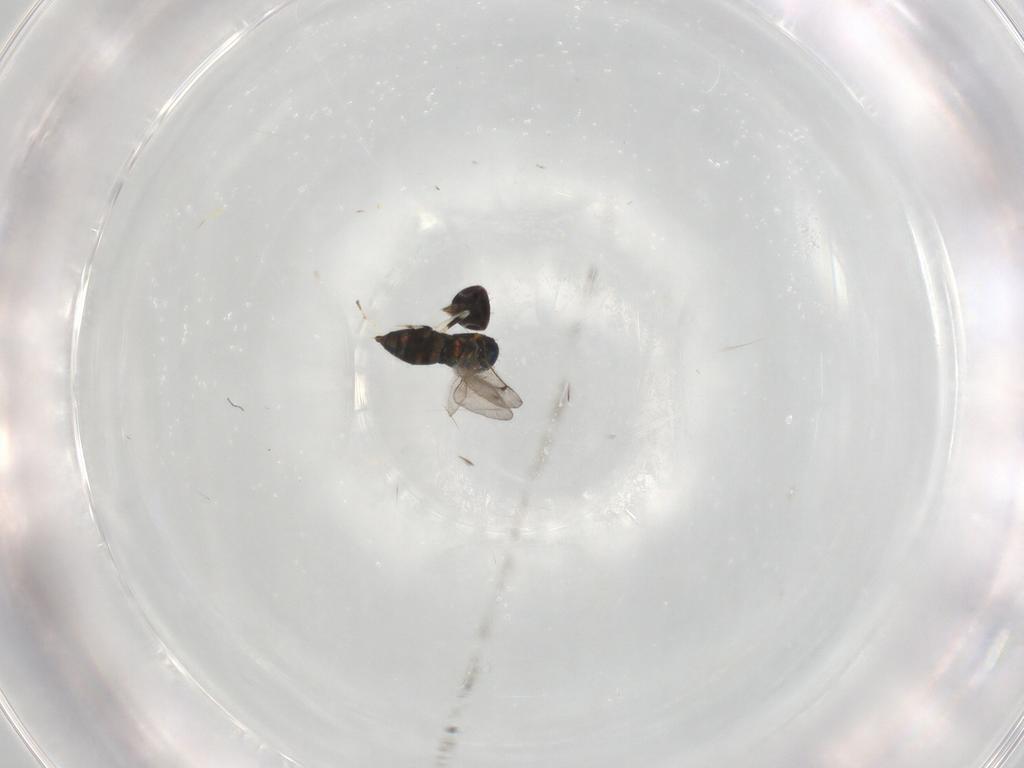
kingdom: Animalia
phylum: Arthropoda
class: Insecta
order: Hymenoptera
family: Eulophidae
